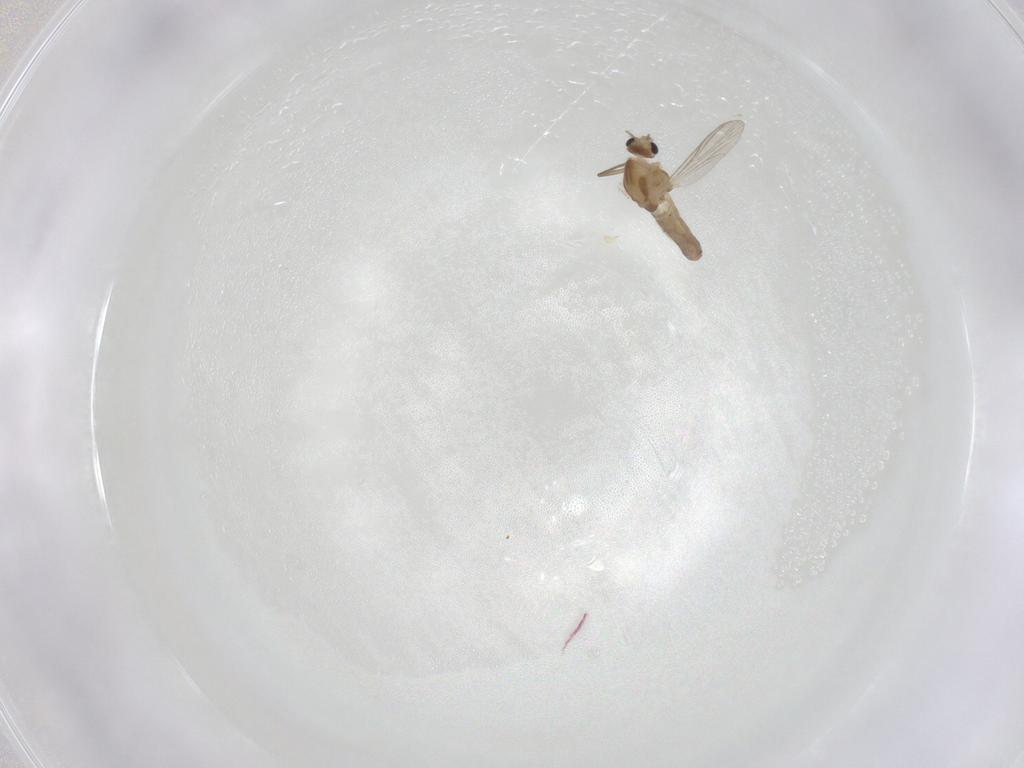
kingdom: Animalia
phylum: Arthropoda
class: Insecta
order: Diptera
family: Chironomidae
